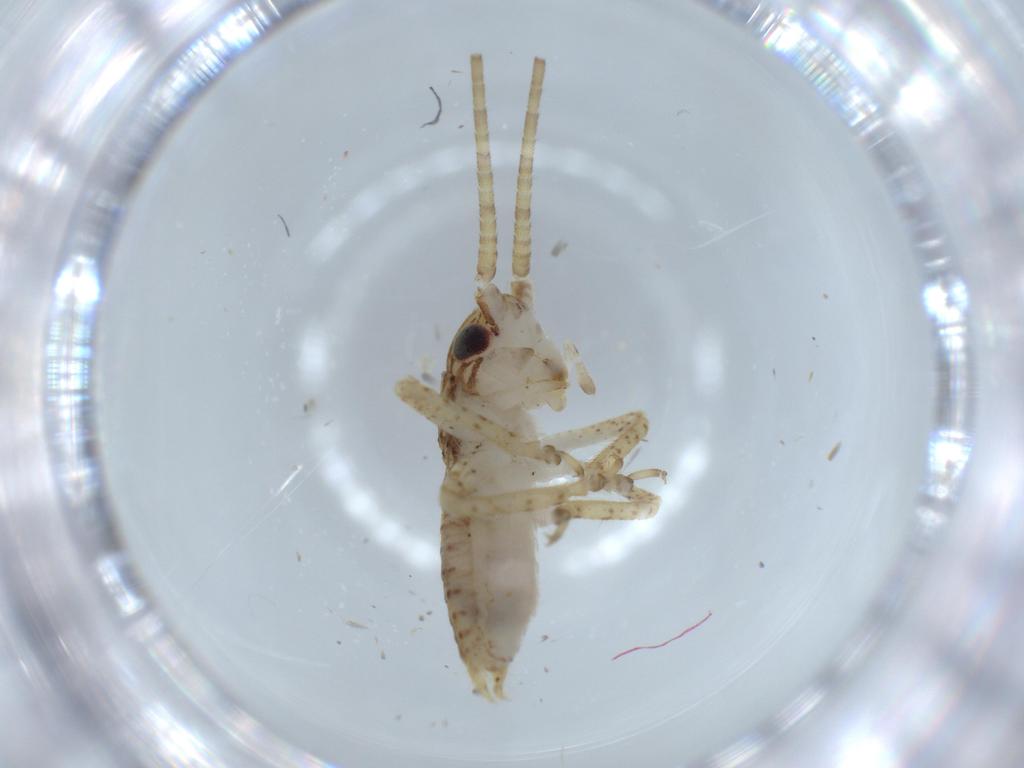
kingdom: Animalia
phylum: Arthropoda
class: Insecta
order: Orthoptera
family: Gryllidae
